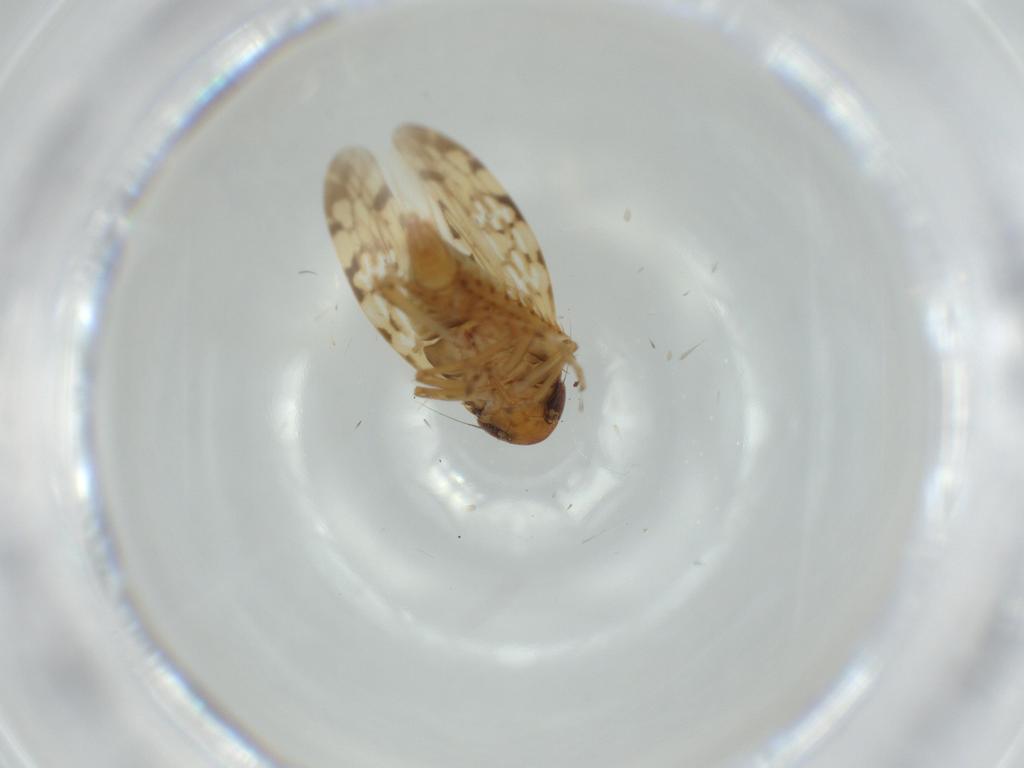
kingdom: Animalia
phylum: Arthropoda
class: Insecta
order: Hemiptera
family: Cicadellidae
